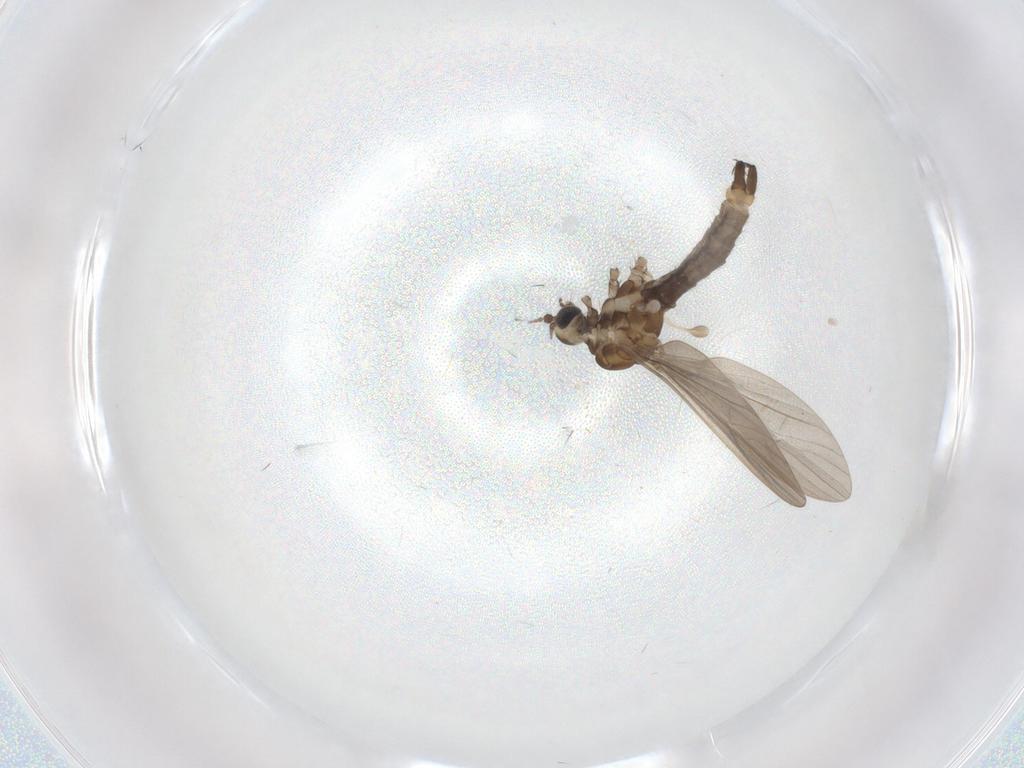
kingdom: Animalia
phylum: Arthropoda
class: Insecta
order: Diptera
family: Limoniidae
